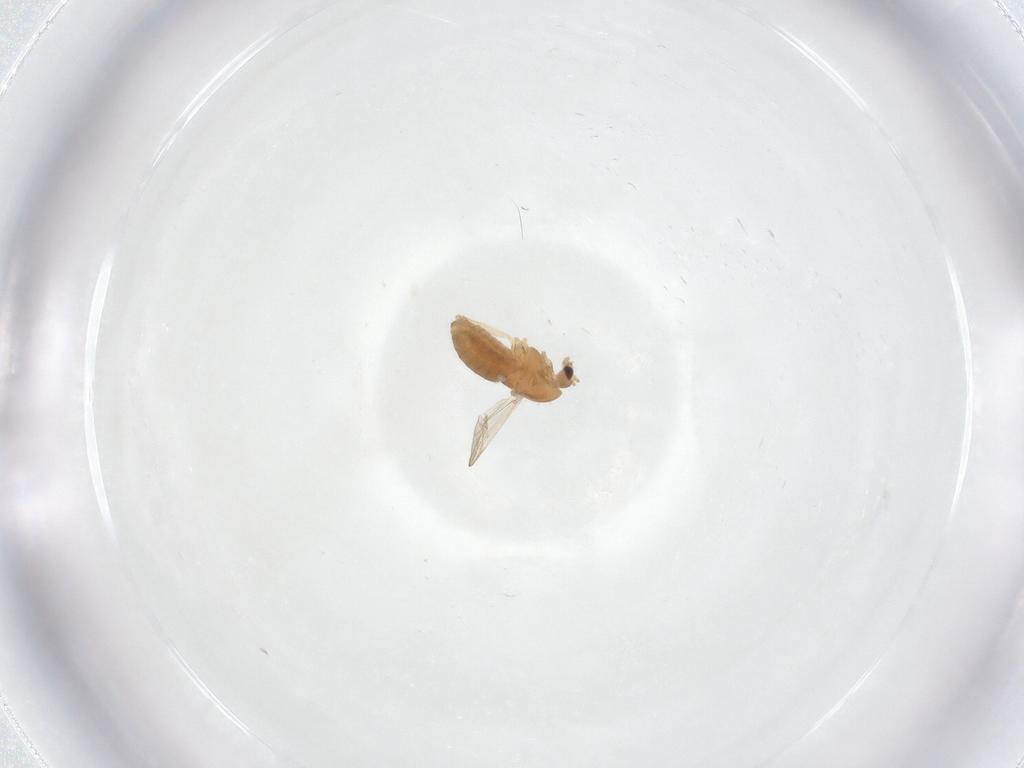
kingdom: Animalia
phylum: Arthropoda
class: Insecta
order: Diptera
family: Chironomidae
